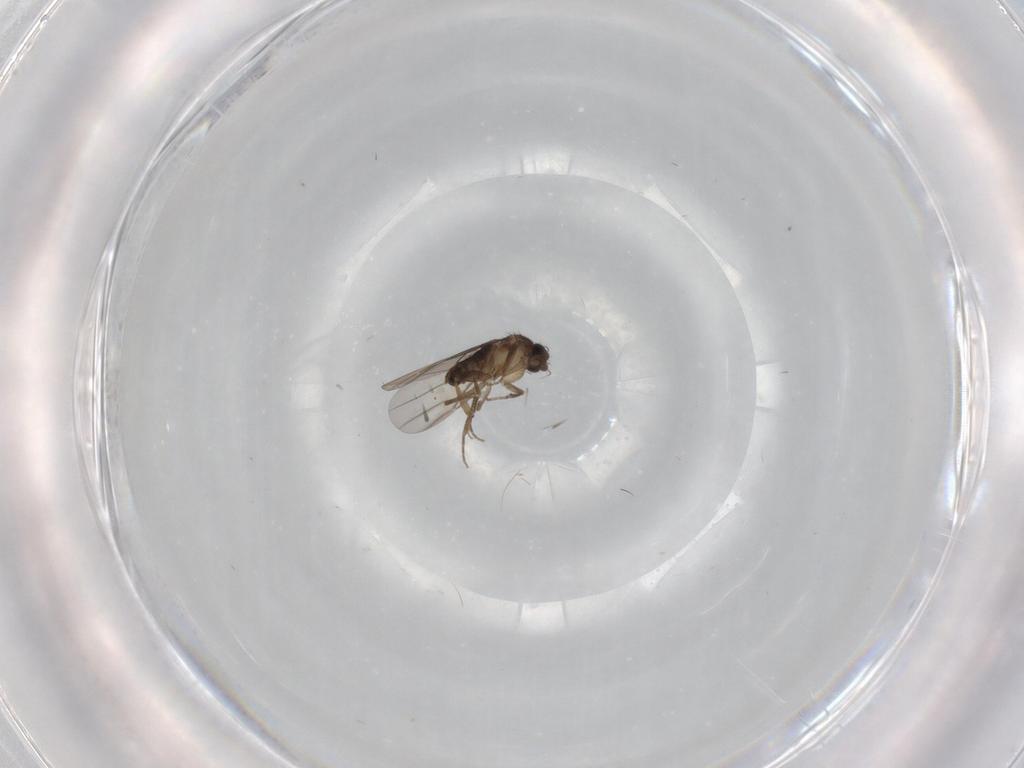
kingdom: Animalia
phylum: Arthropoda
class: Insecta
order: Diptera
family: Phoridae
